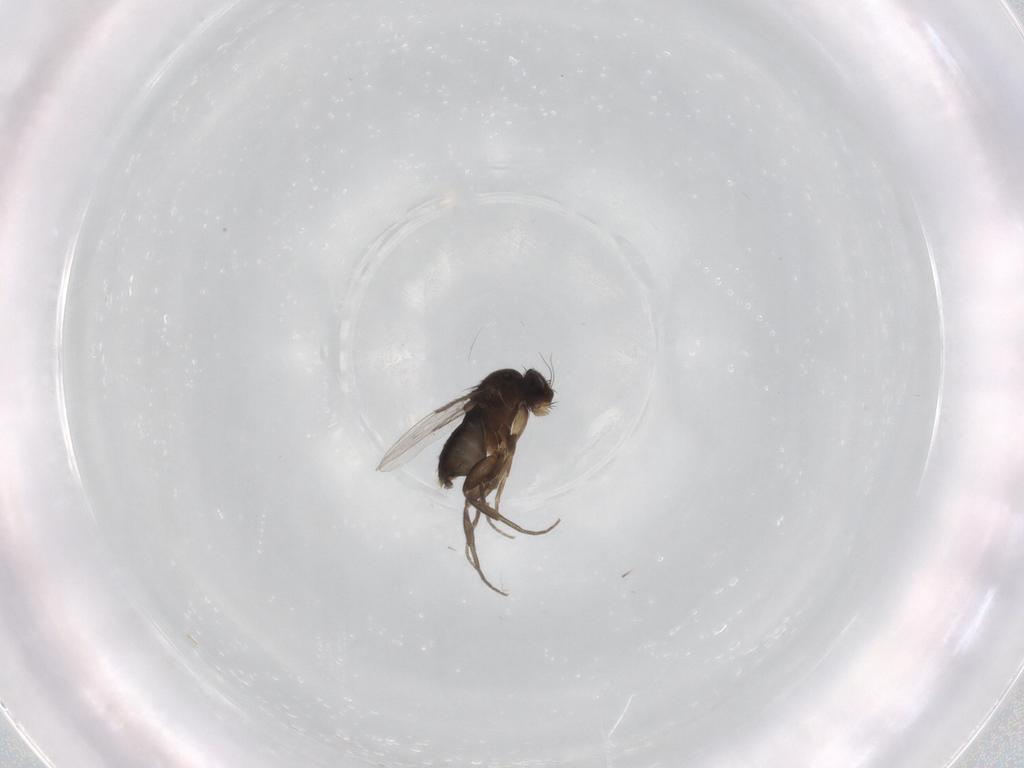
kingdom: Animalia
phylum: Arthropoda
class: Insecta
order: Diptera
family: Phoridae
